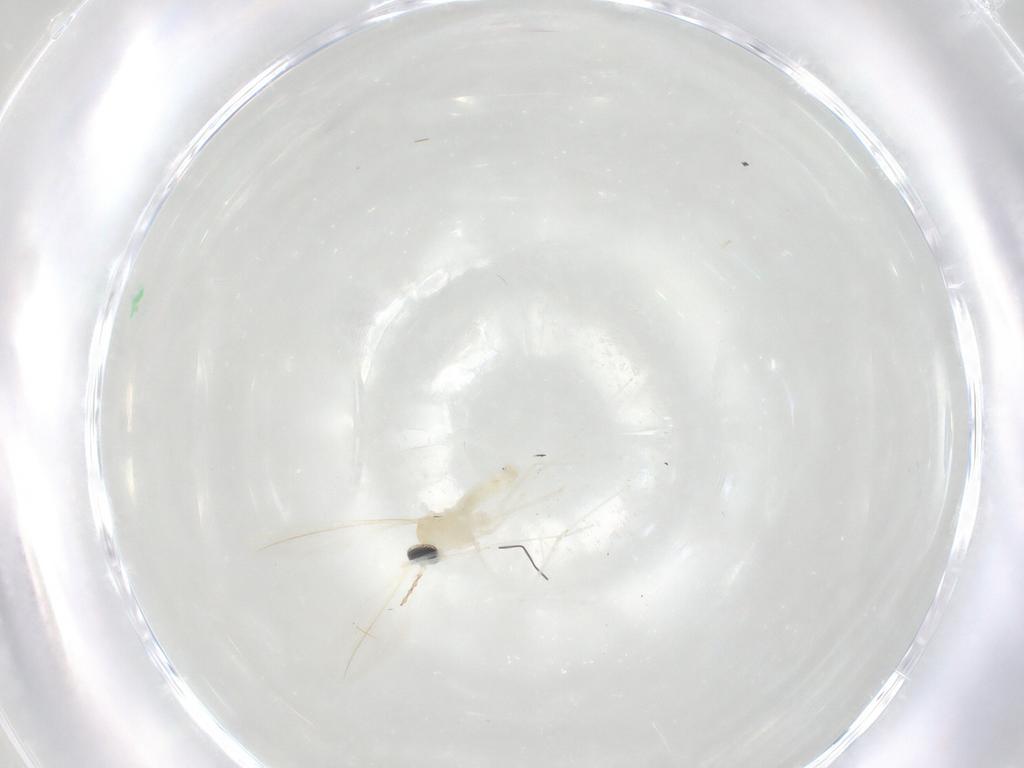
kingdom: Animalia
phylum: Arthropoda
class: Insecta
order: Diptera
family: Cecidomyiidae
